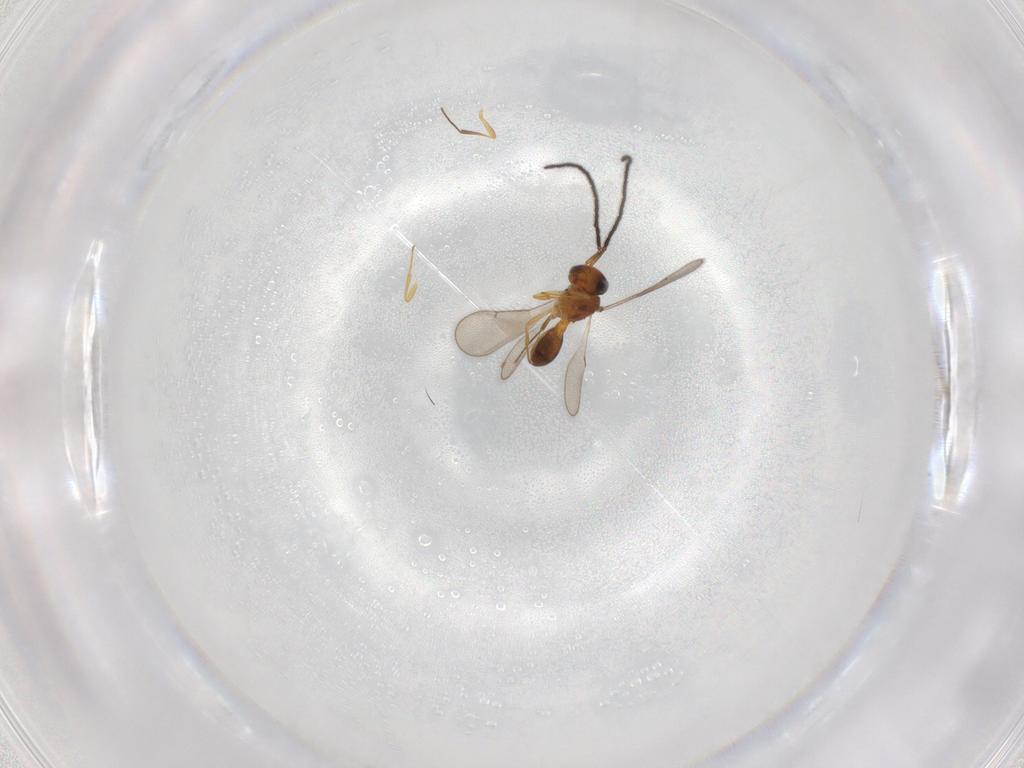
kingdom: Animalia
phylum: Arthropoda
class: Insecta
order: Hymenoptera
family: Scelionidae
